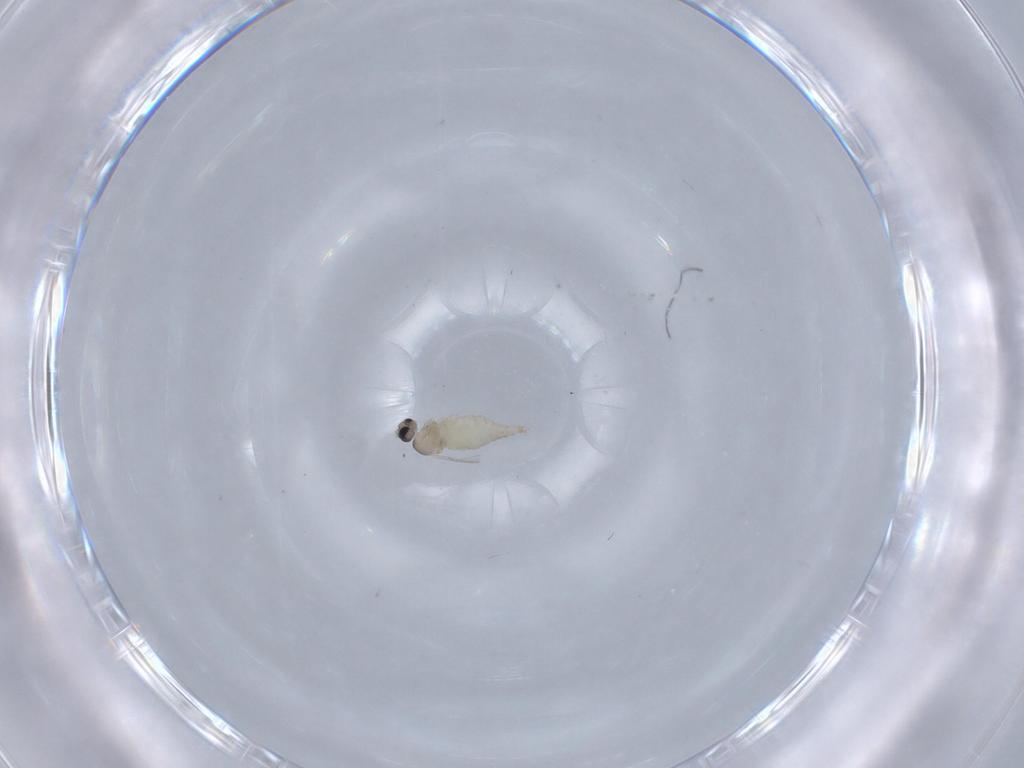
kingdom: Animalia
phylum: Arthropoda
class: Insecta
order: Diptera
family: Cecidomyiidae
